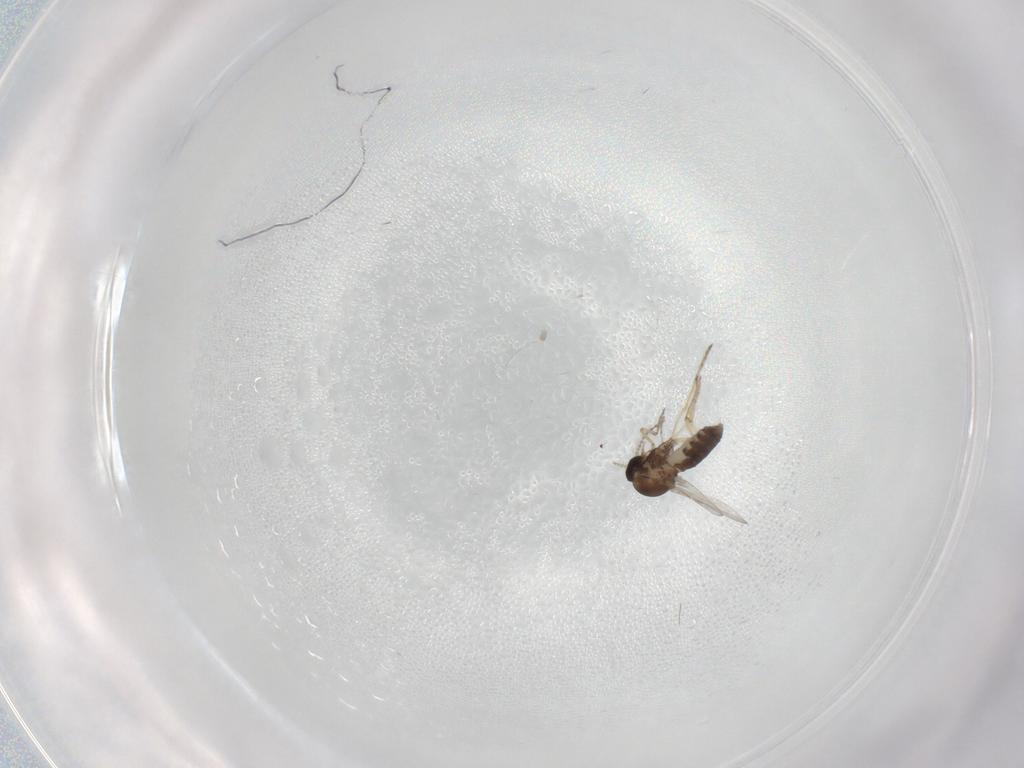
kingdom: Animalia
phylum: Arthropoda
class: Insecta
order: Diptera
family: Ceratopogonidae
